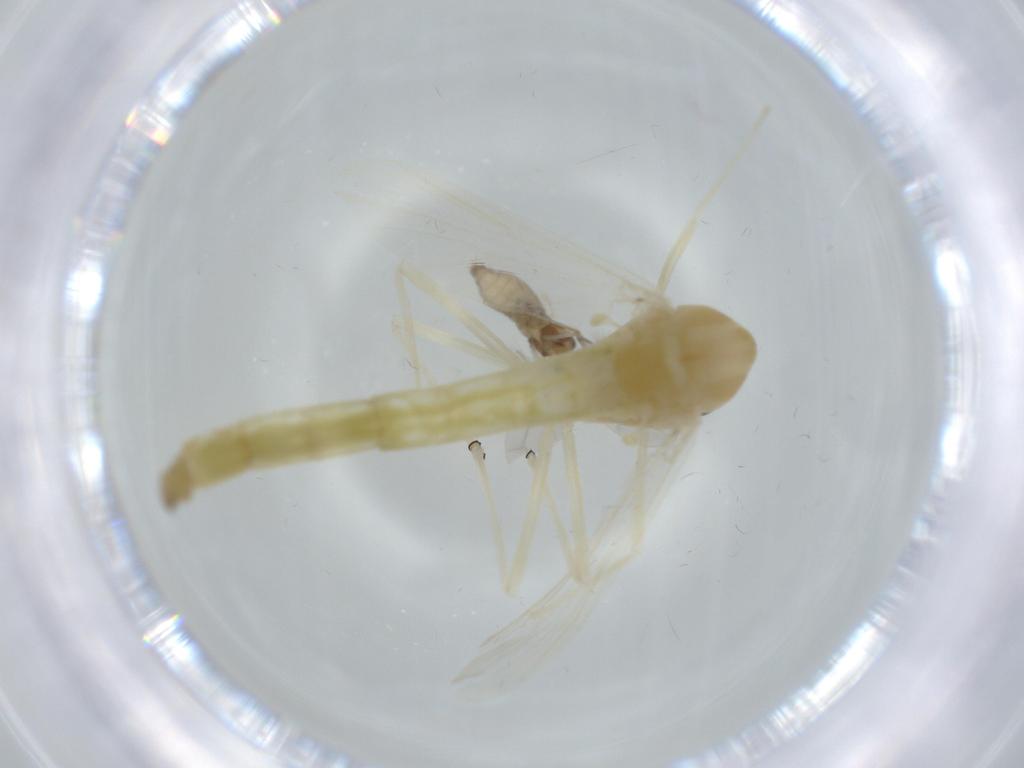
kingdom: Animalia
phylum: Arthropoda
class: Insecta
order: Diptera
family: Chironomidae
